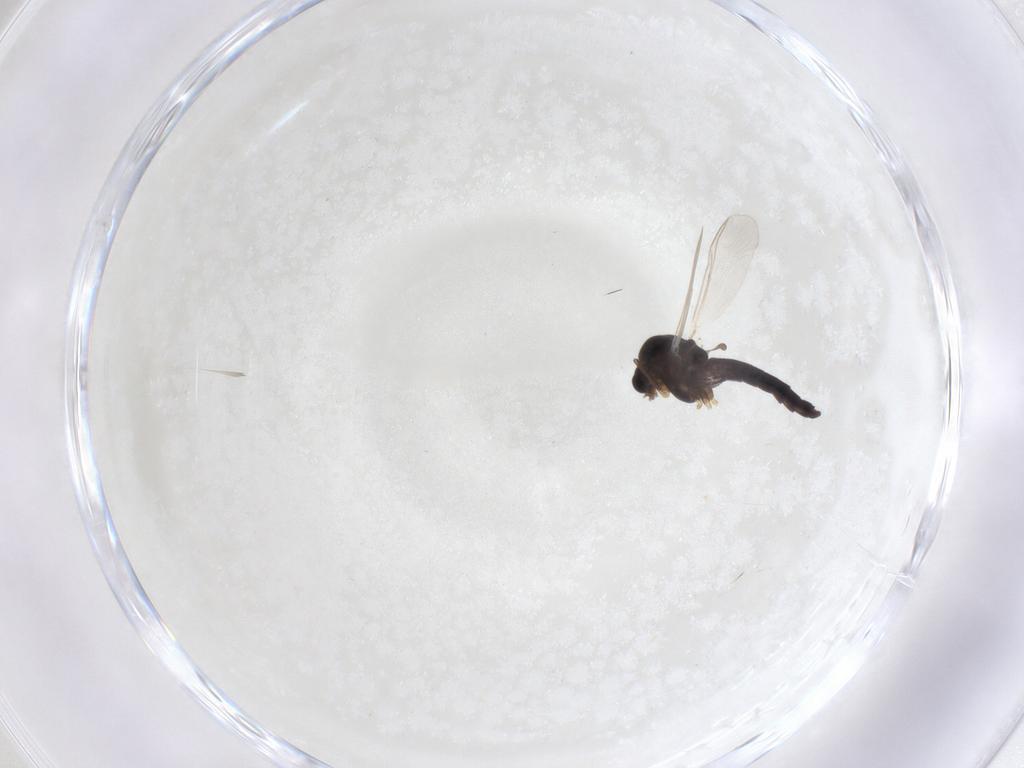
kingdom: Animalia
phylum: Arthropoda
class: Insecta
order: Diptera
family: Chironomidae
